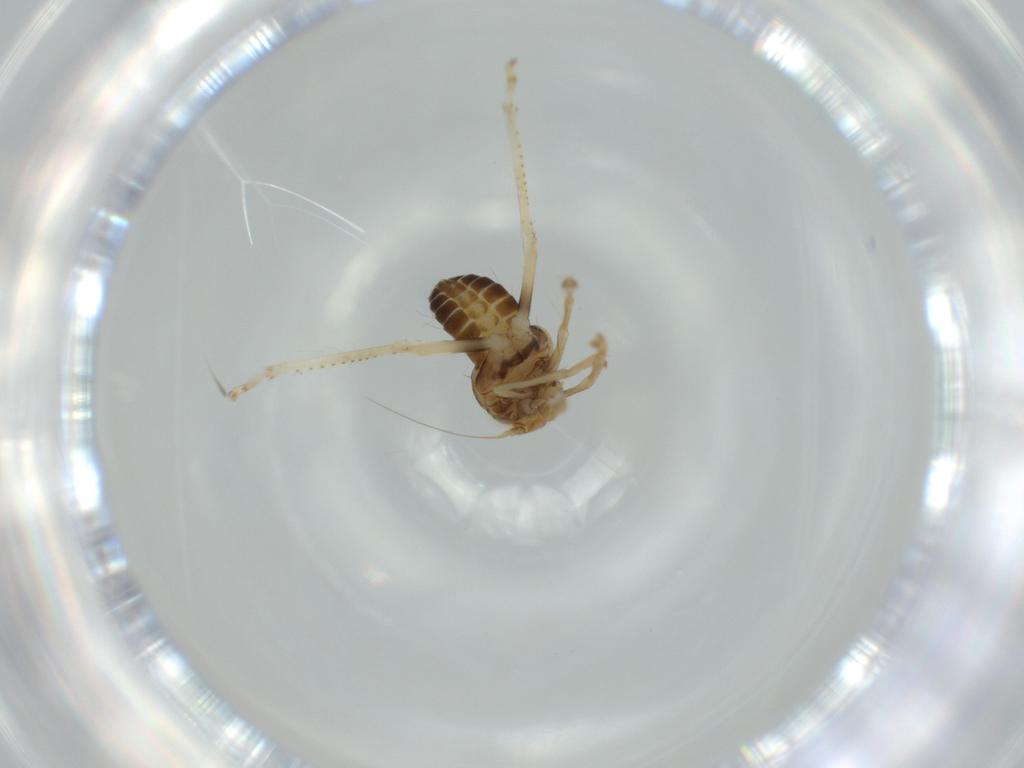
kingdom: Animalia
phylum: Arthropoda
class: Insecta
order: Hemiptera
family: Cicadellidae
